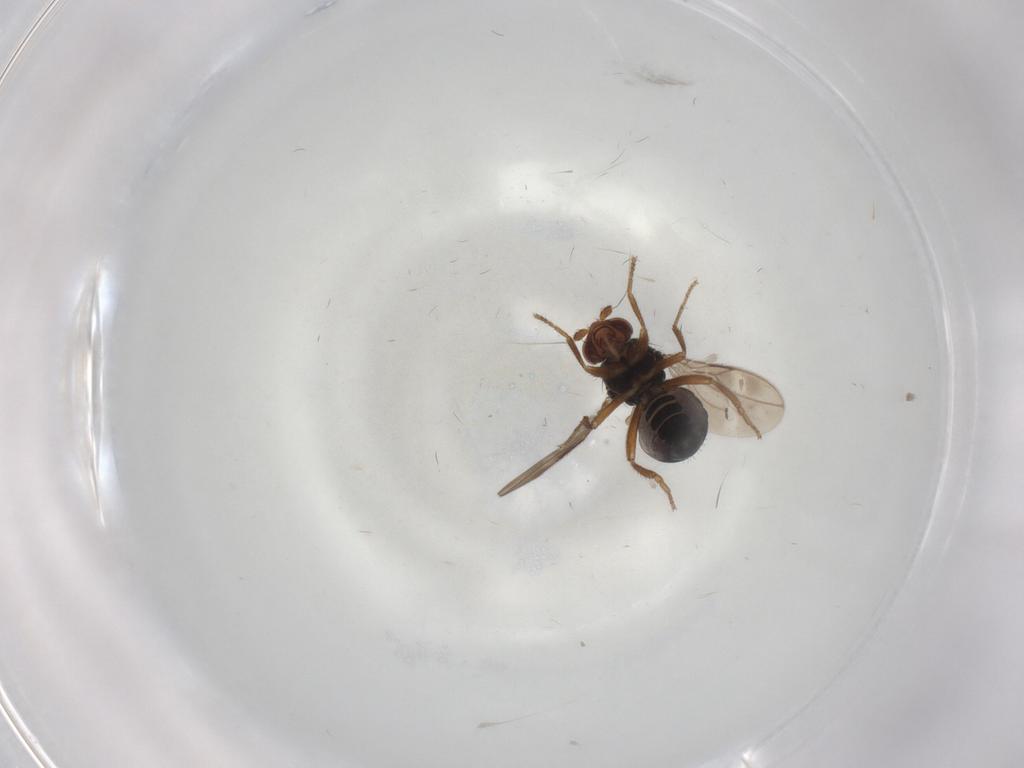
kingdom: Animalia
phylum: Arthropoda
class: Insecta
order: Diptera
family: Sphaeroceridae
